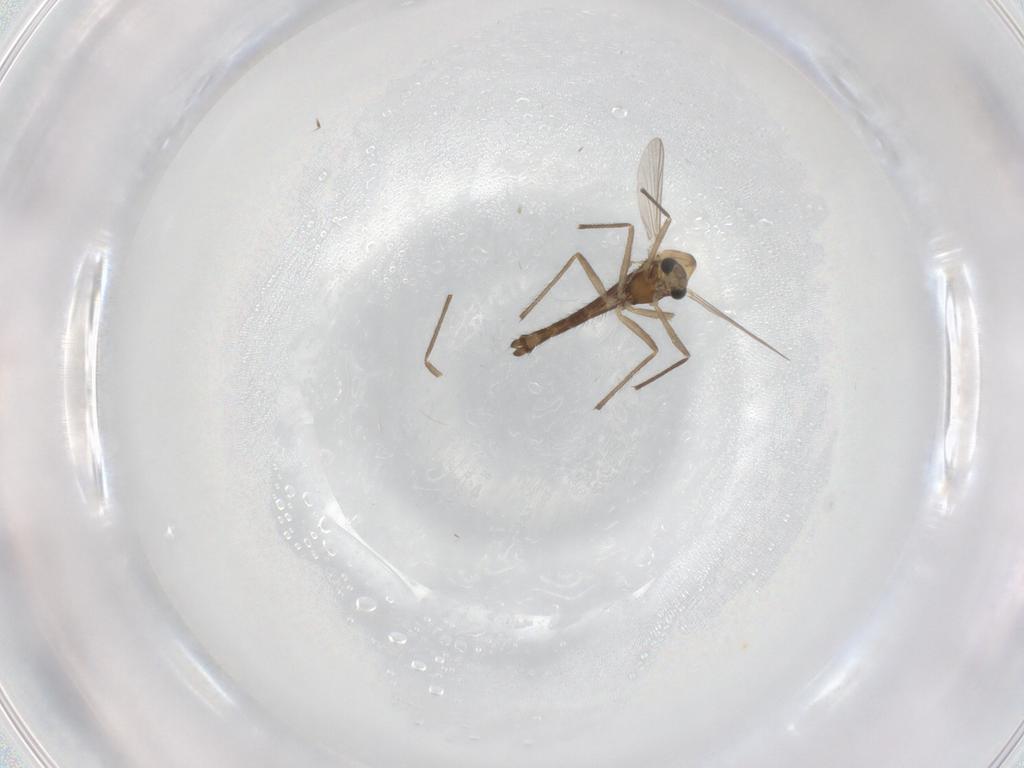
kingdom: Animalia
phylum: Arthropoda
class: Insecta
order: Diptera
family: Chironomidae
